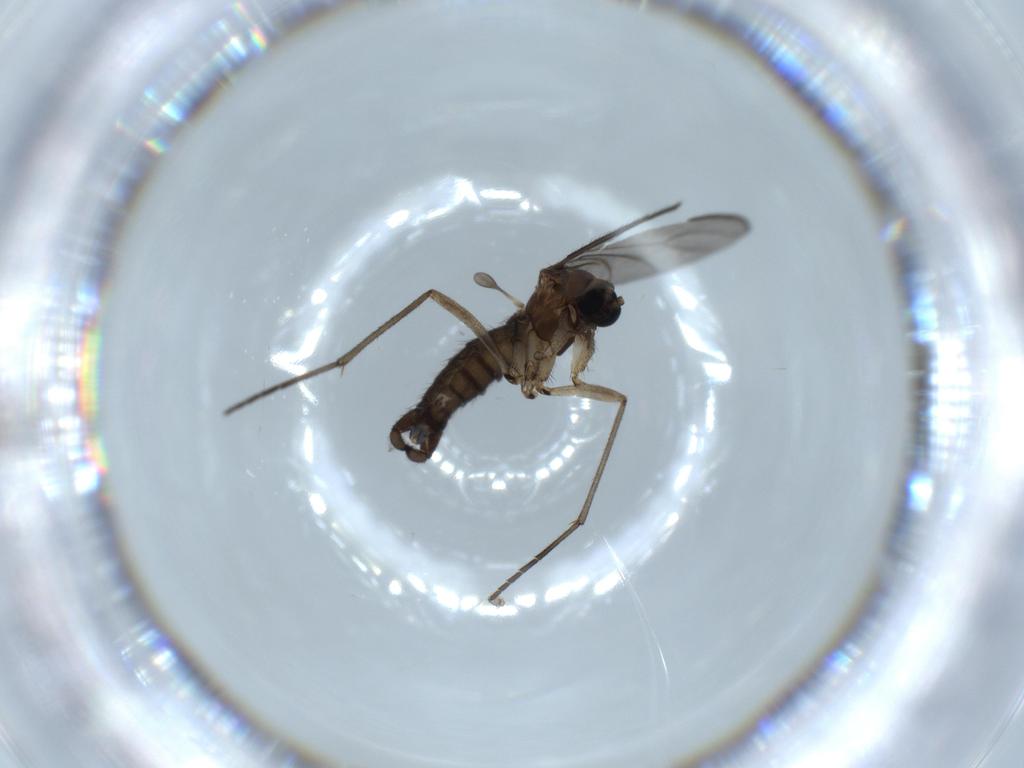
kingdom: Animalia
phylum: Arthropoda
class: Insecta
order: Diptera
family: Sciaridae
